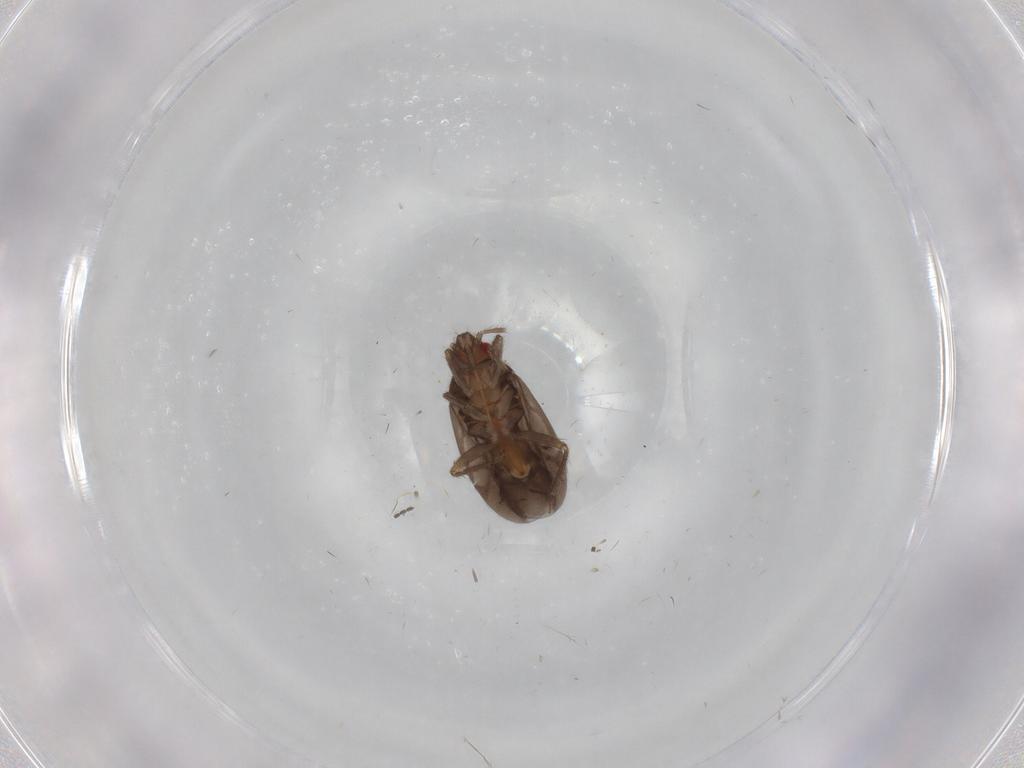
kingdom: Animalia
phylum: Arthropoda
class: Insecta
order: Hemiptera
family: Ceratocombidae
